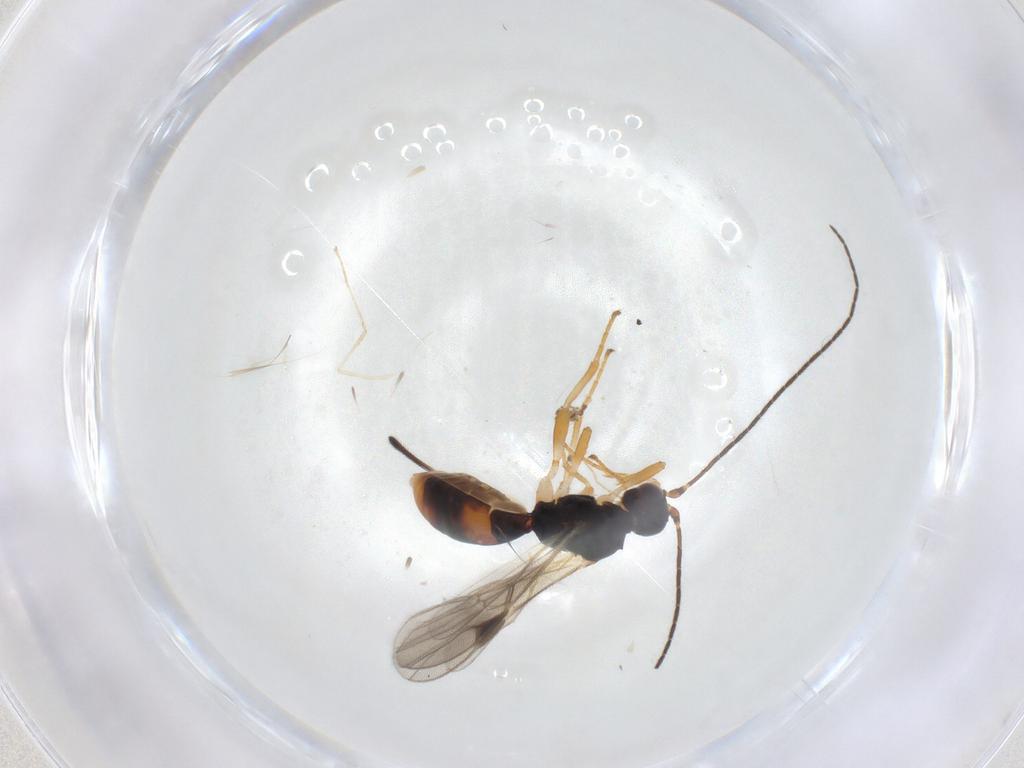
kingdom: Animalia
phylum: Arthropoda
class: Insecta
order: Hymenoptera
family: Braconidae
